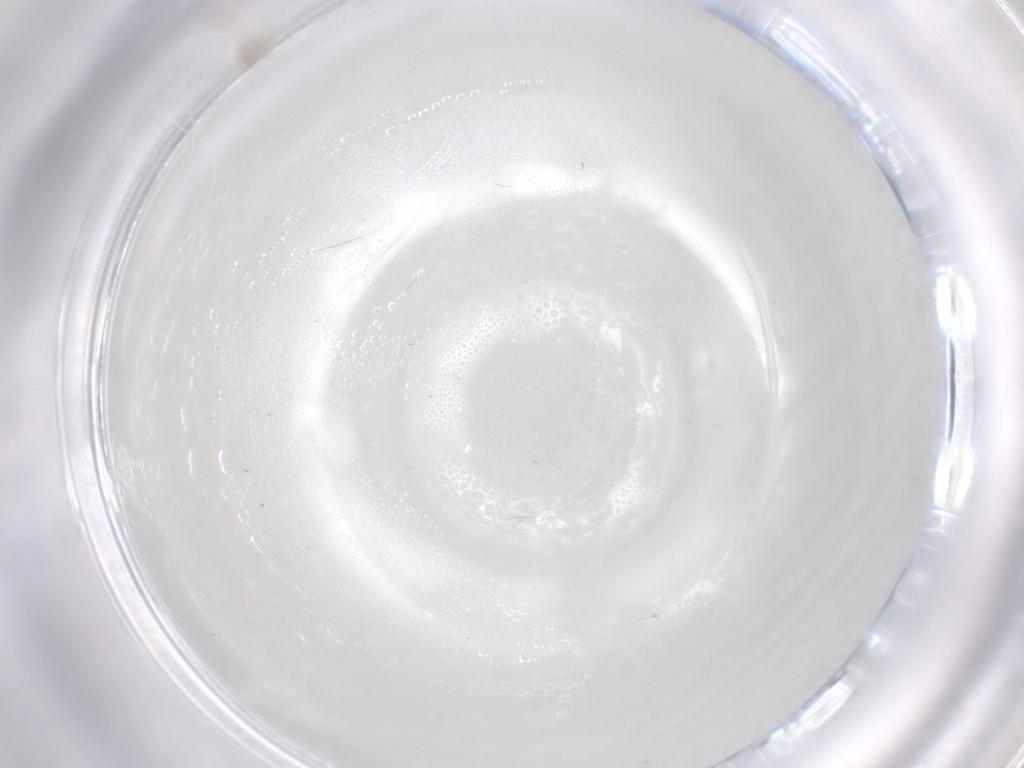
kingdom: Animalia
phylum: Arthropoda
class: Insecta
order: Diptera
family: Cecidomyiidae
